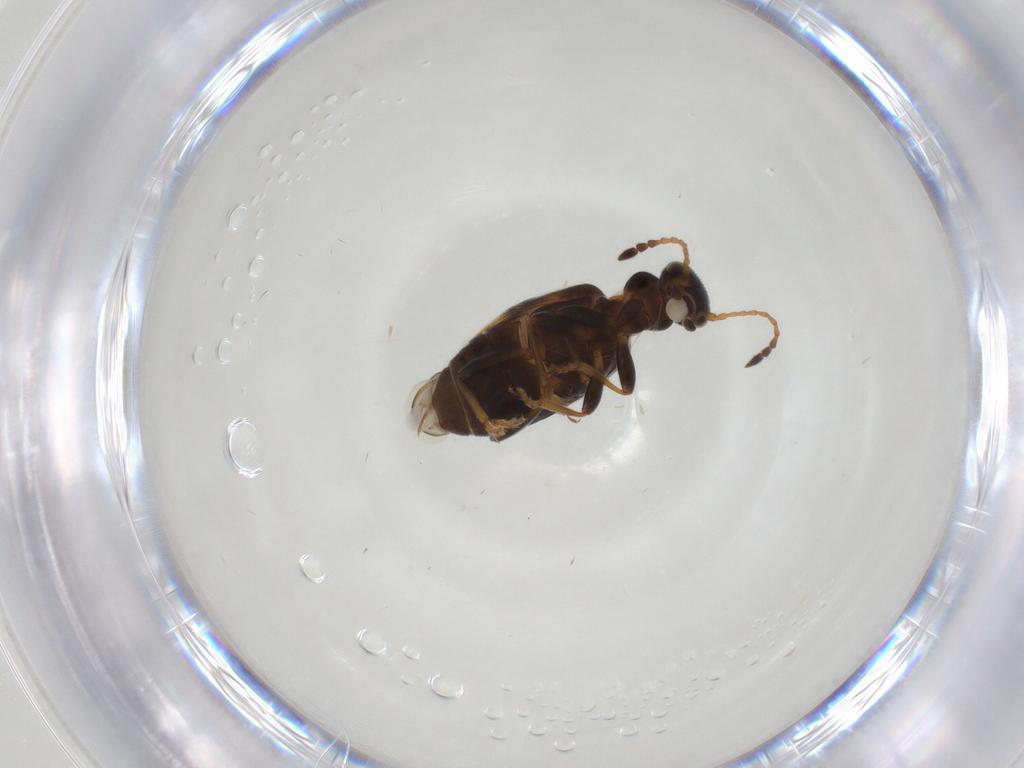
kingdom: Animalia
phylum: Arthropoda
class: Insecta
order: Coleoptera
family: Anthicidae
